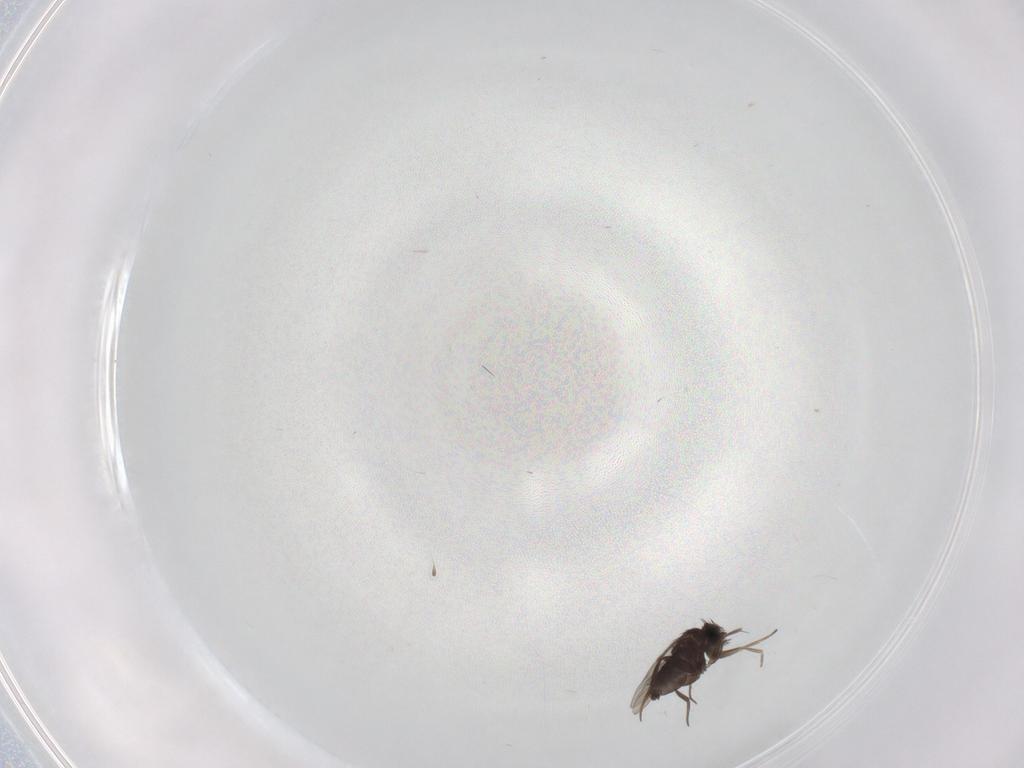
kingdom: Animalia
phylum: Arthropoda
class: Insecta
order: Diptera
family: Phoridae
